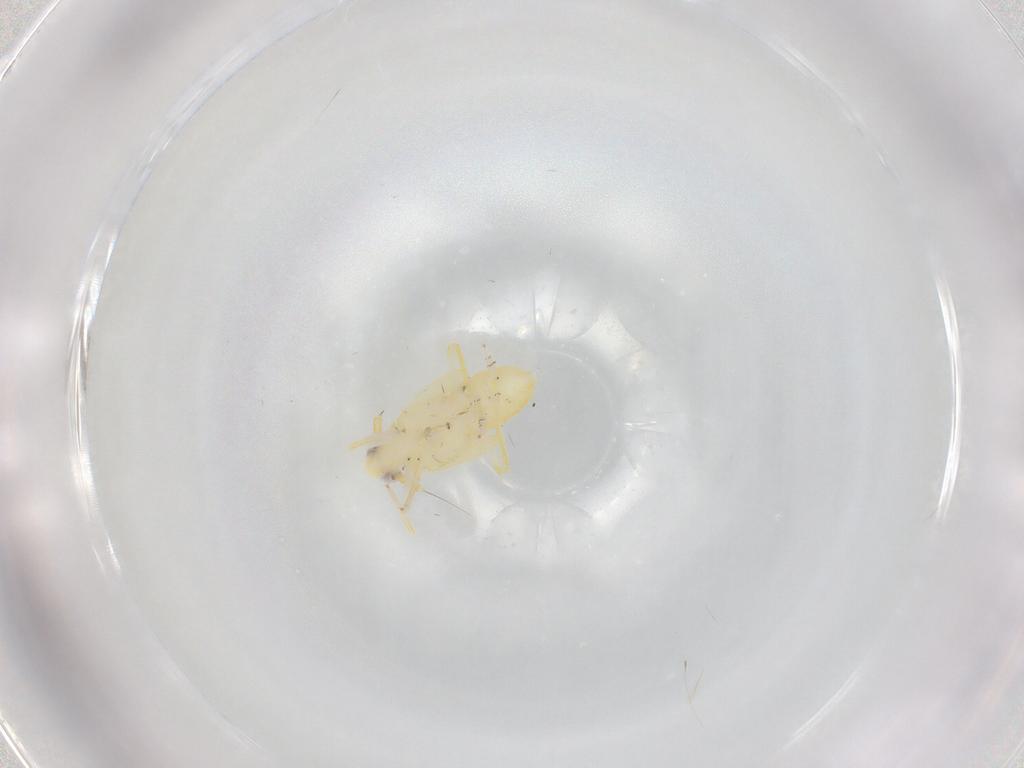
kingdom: Animalia
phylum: Arthropoda
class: Insecta
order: Hemiptera
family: Delphacidae
